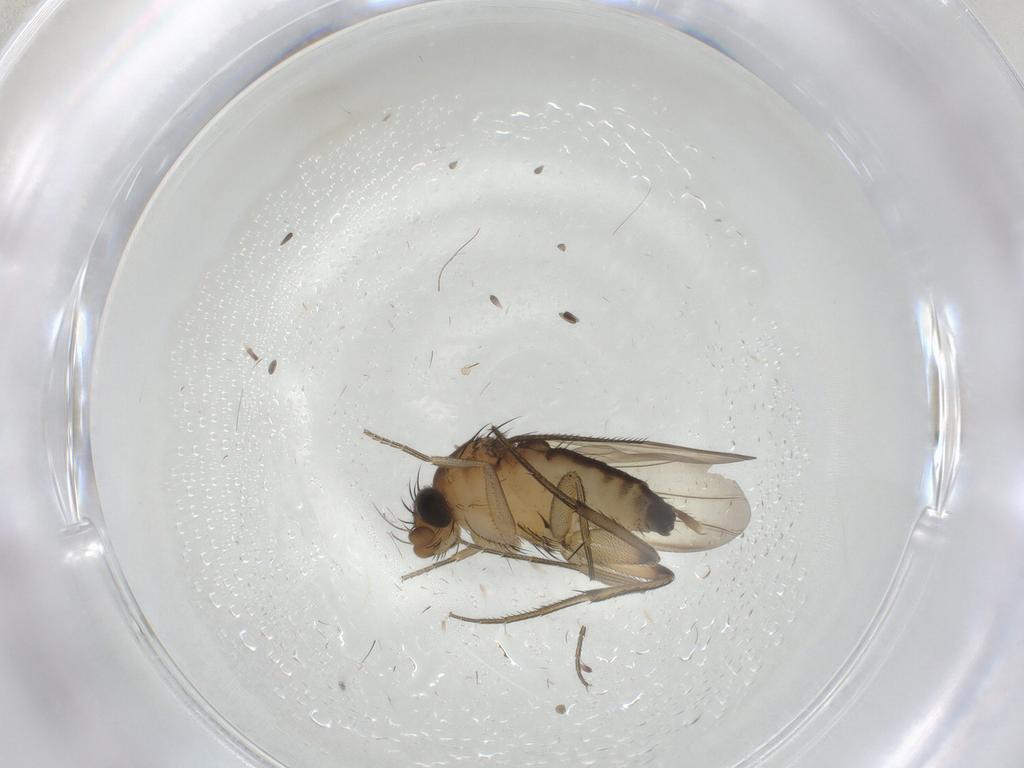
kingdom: Animalia
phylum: Arthropoda
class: Insecta
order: Diptera
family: Phoridae
